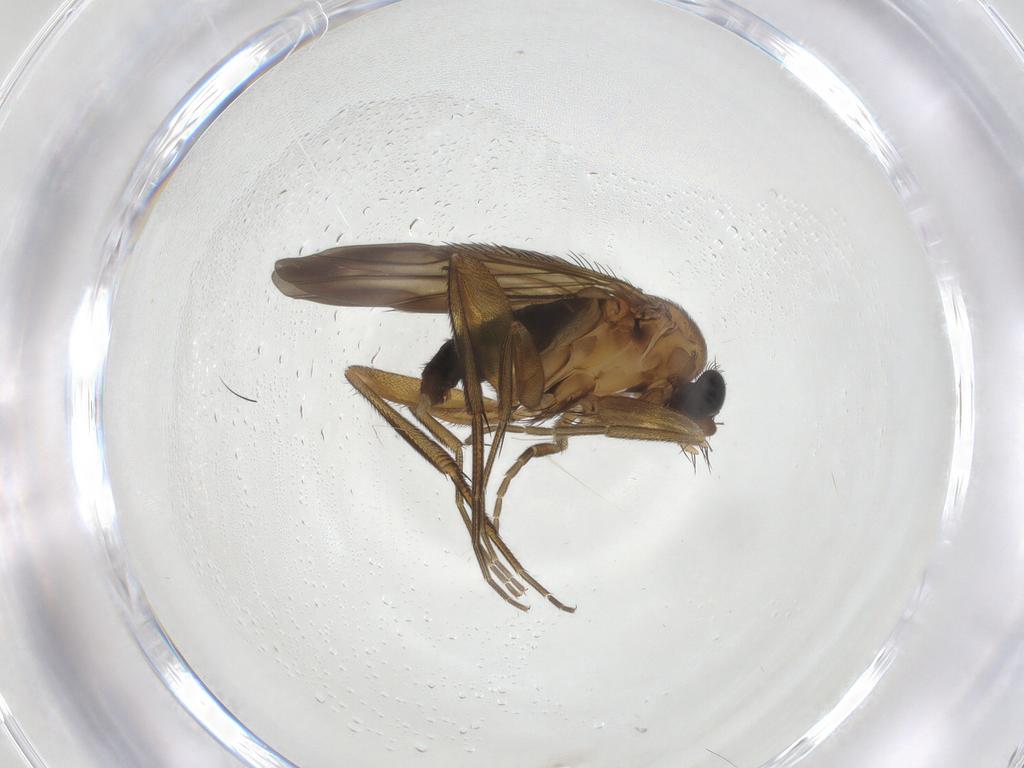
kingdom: Animalia
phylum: Arthropoda
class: Insecta
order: Diptera
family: Phoridae
